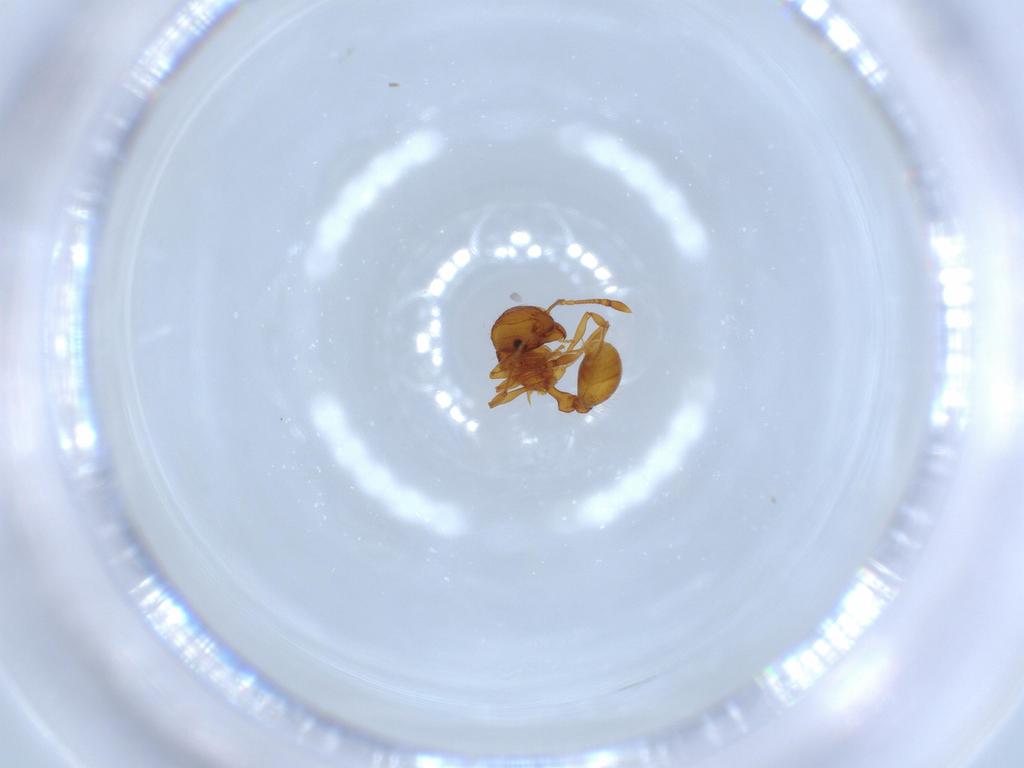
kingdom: Animalia
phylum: Arthropoda
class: Insecta
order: Hymenoptera
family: Formicidae
